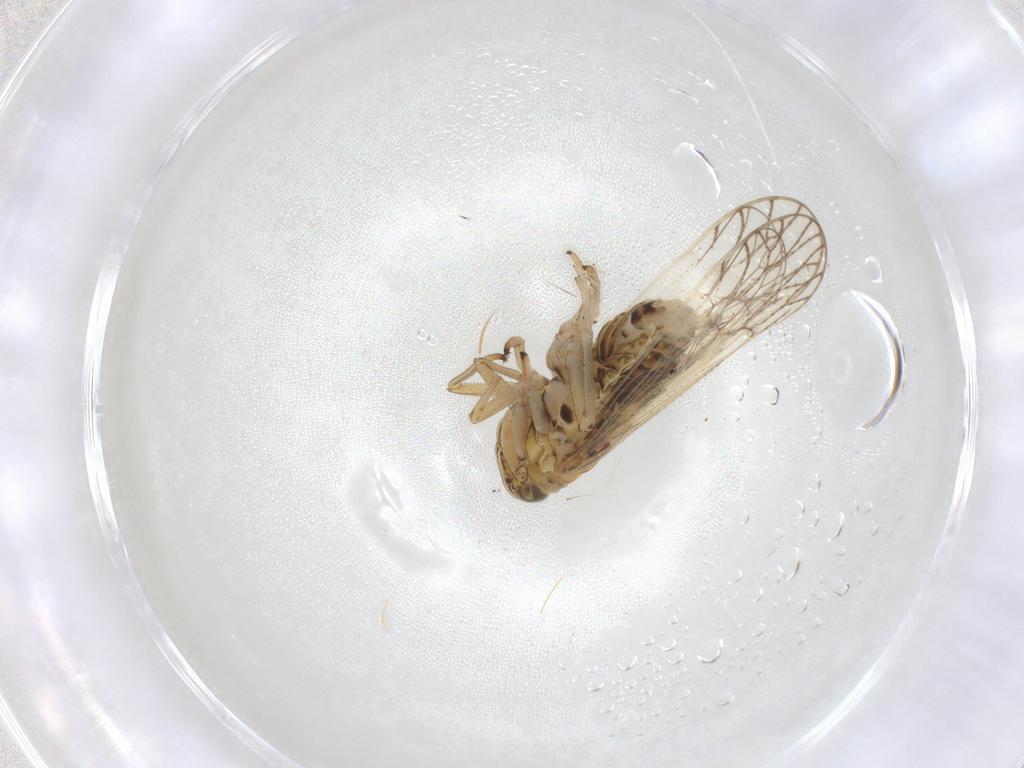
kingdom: Animalia
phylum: Arthropoda
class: Insecta
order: Strepsiptera
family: Elenchidae
